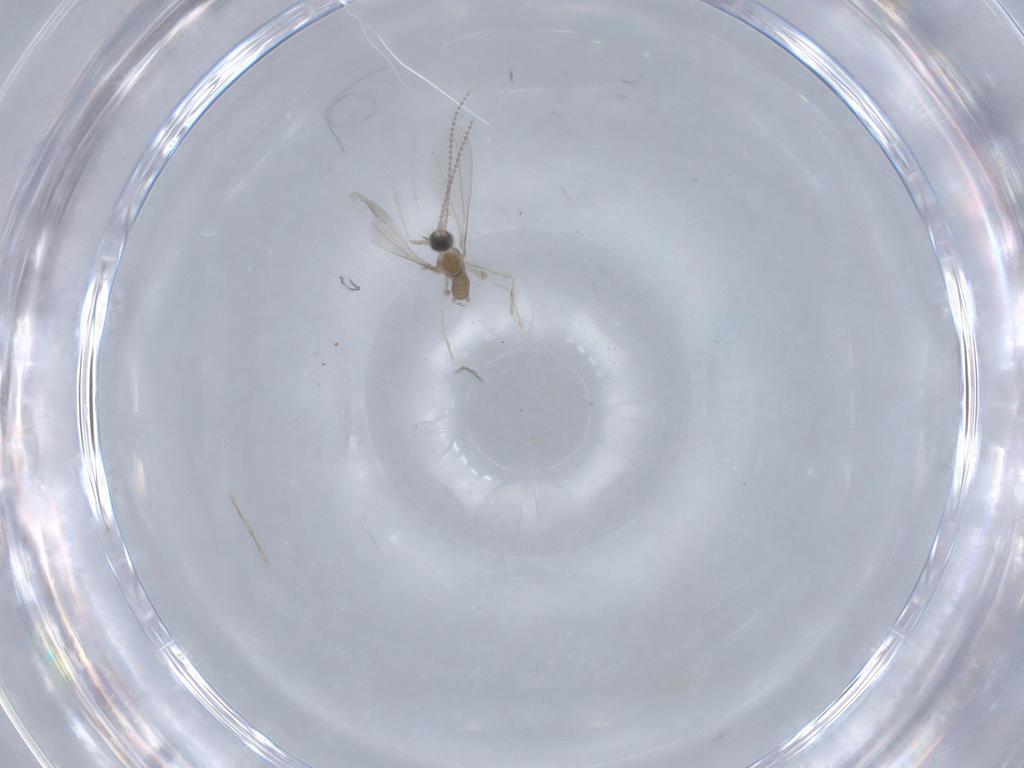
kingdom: Animalia
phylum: Arthropoda
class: Insecta
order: Diptera
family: Cecidomyiidae
